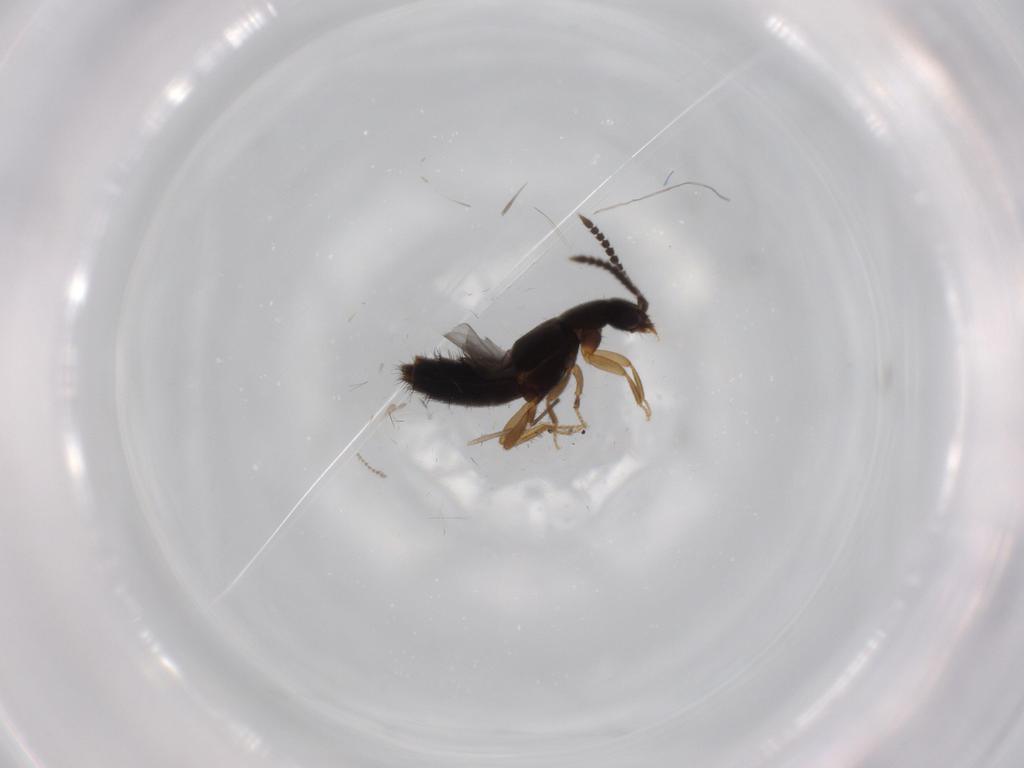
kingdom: Animalia
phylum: Arthropoda
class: Insecta
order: Coleoptera
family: Staphylinidae
